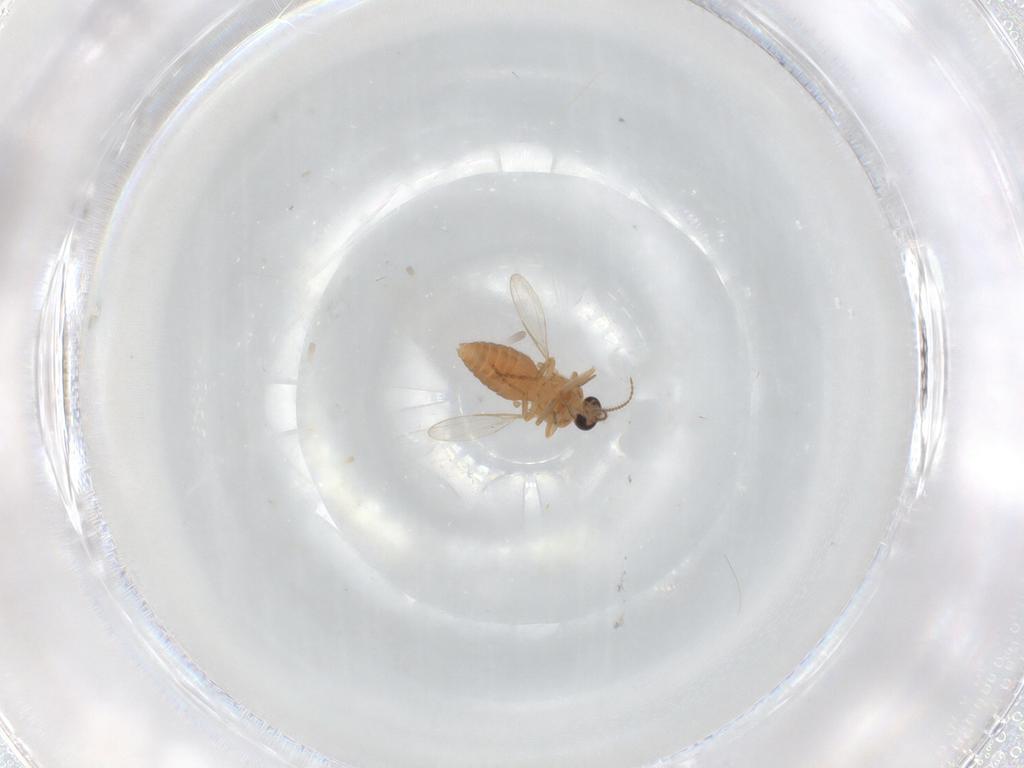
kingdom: Animalia
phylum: Arthropoda
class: Insecta
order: Diptera
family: Ceratopogonidae
